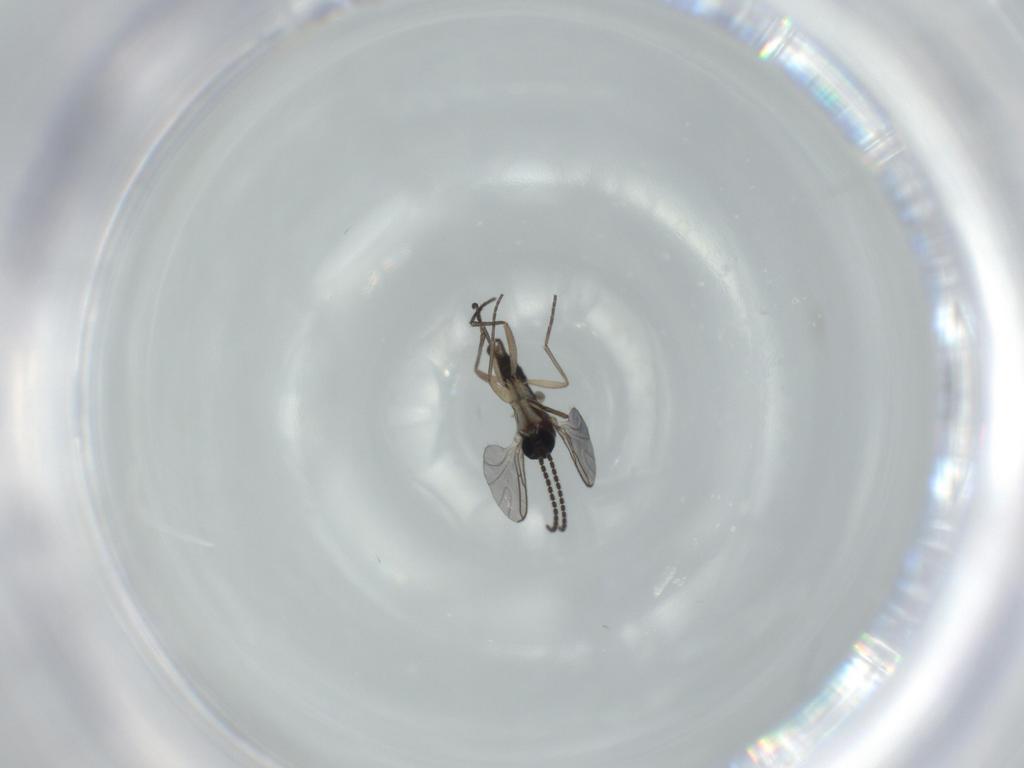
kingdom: Animalia
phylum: Arthropoda
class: Insecta
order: Diptera
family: Sciaridae
